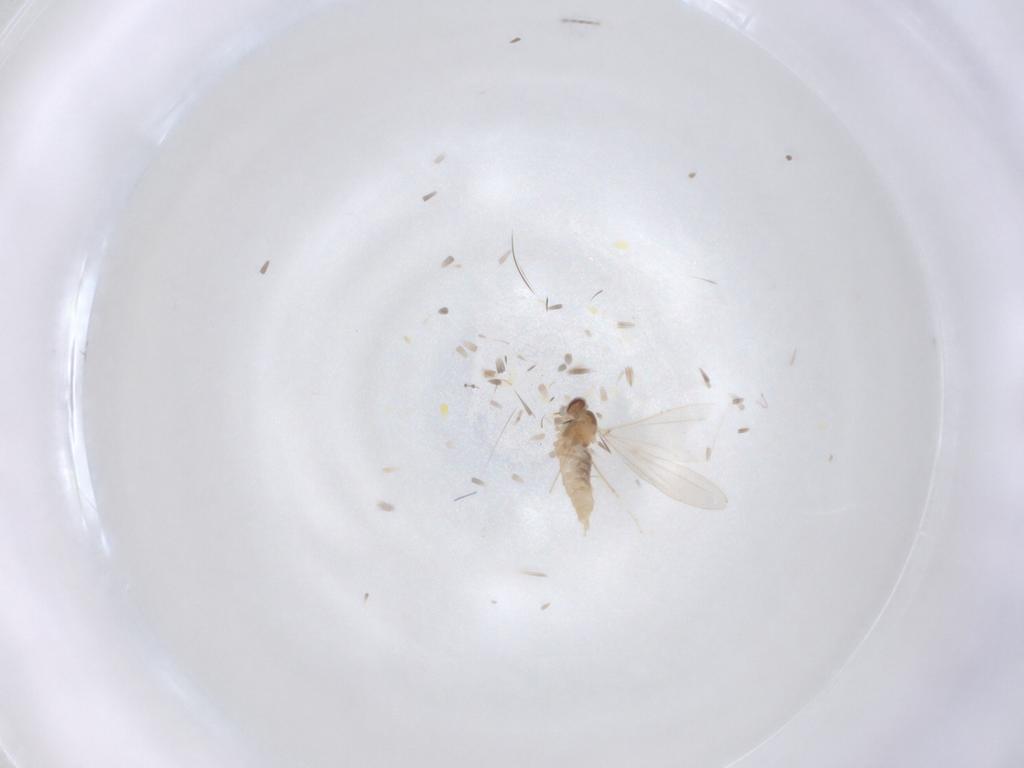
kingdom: Animalia
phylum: Arthropoda
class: Insecta
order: Diptera
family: Cecidomyiidae
